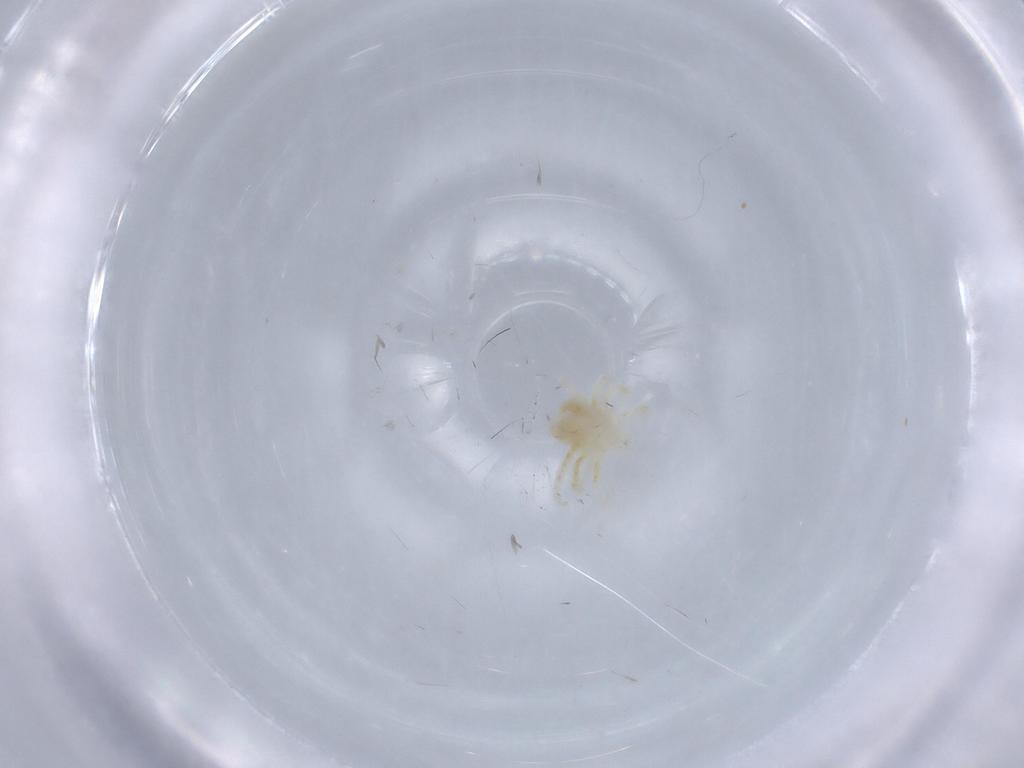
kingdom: Animalia
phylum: Arthropoda
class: Arachnida
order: Trombidiformes
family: Anystidae
